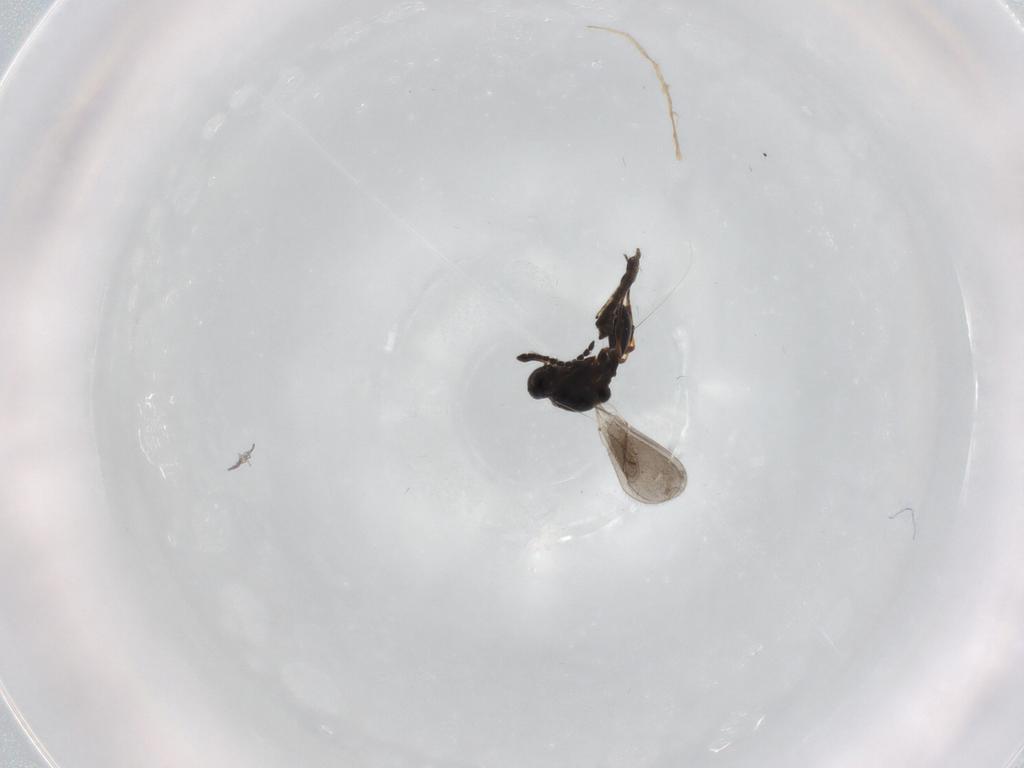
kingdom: Animalia
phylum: Arthropoda
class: Insecta
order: Hymenoptera
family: Platygastridae
